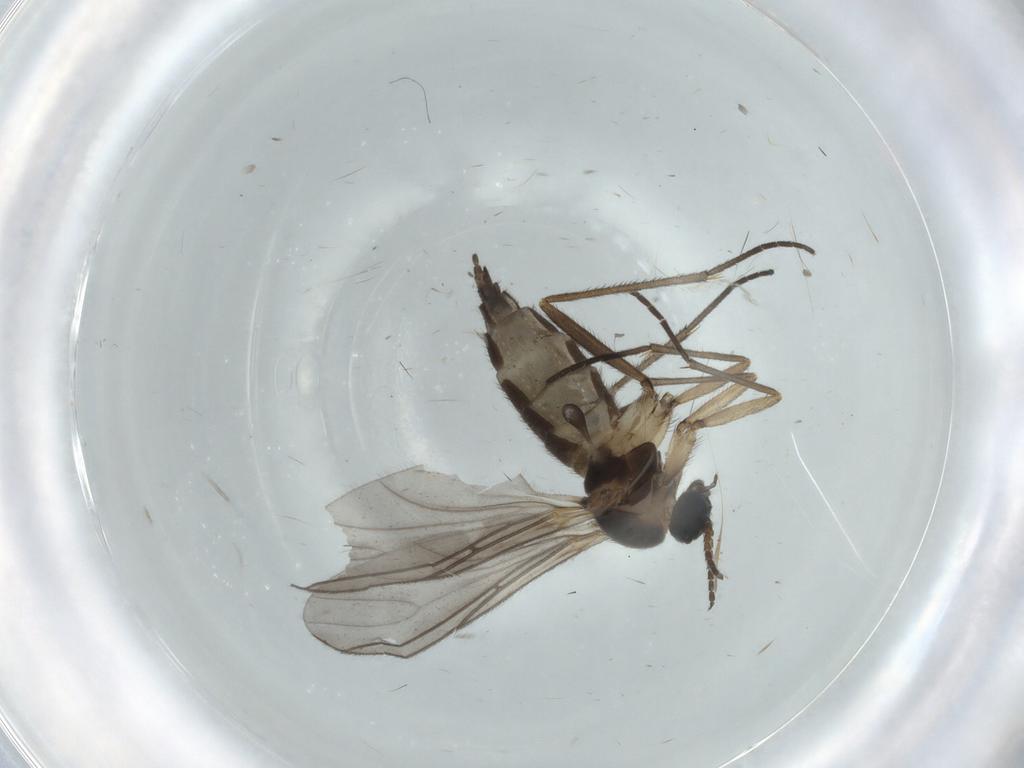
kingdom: Animalia
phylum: Arthropoda
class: Insecta
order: Diptera
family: Sciaridae
